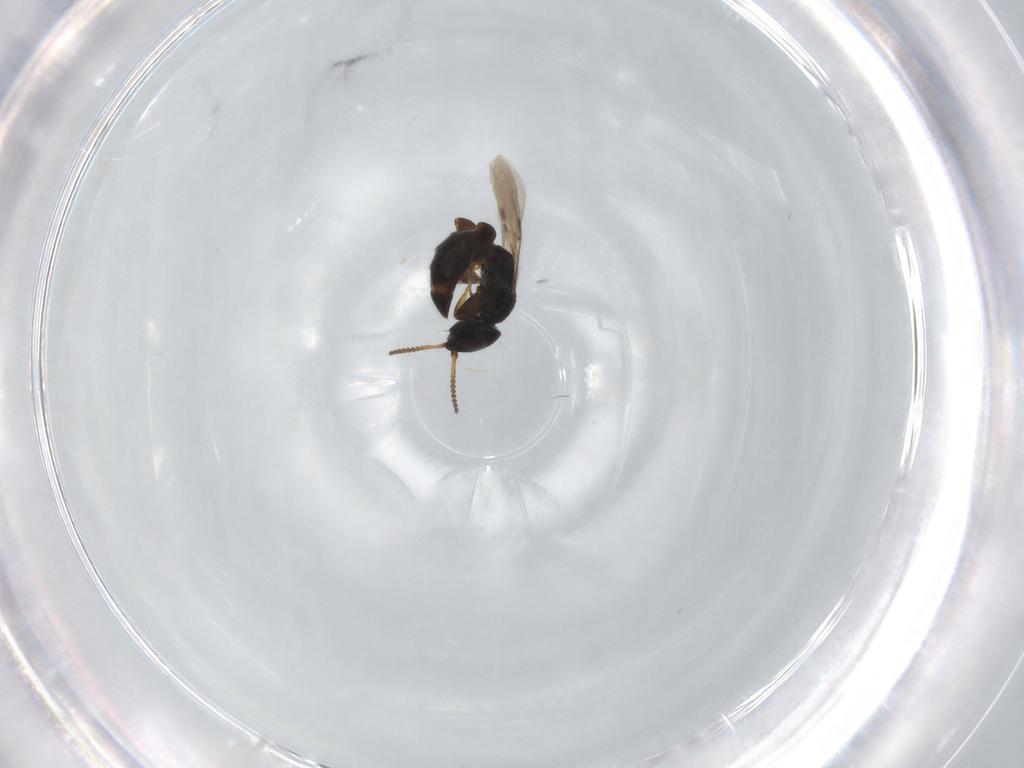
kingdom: Animalia
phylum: Arthropoda
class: Insecta
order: Hymenoptera
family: Bethylidae
